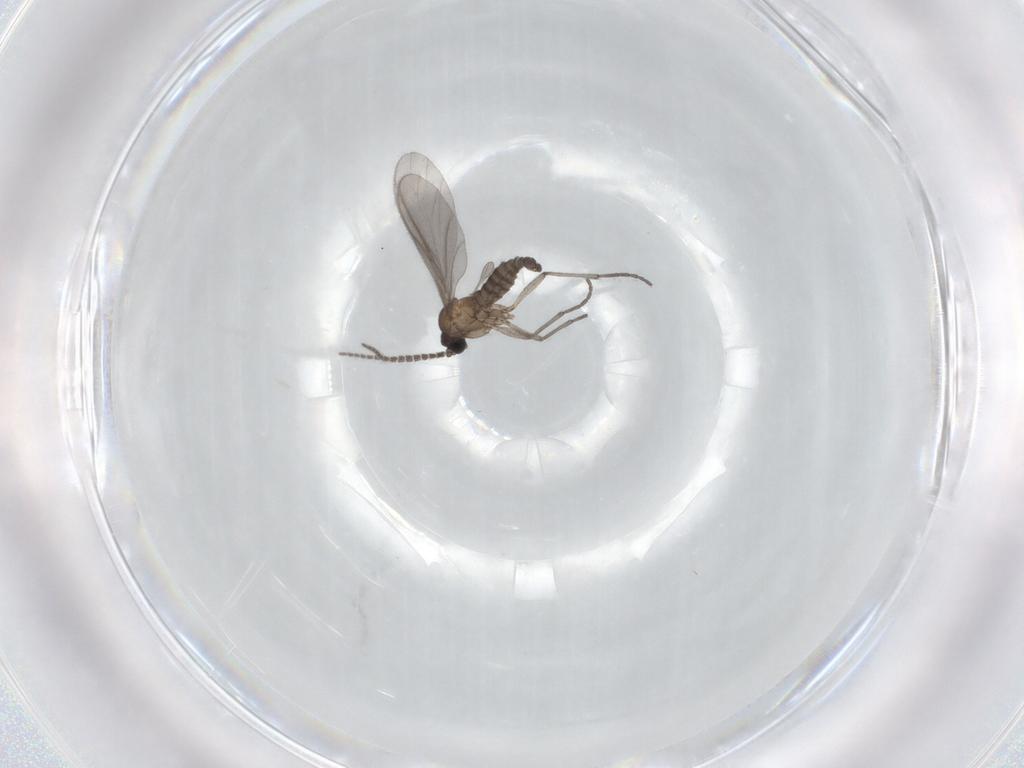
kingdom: Animalia
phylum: Arthropoda
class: Insecta
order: Diptera
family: Sciaridae
